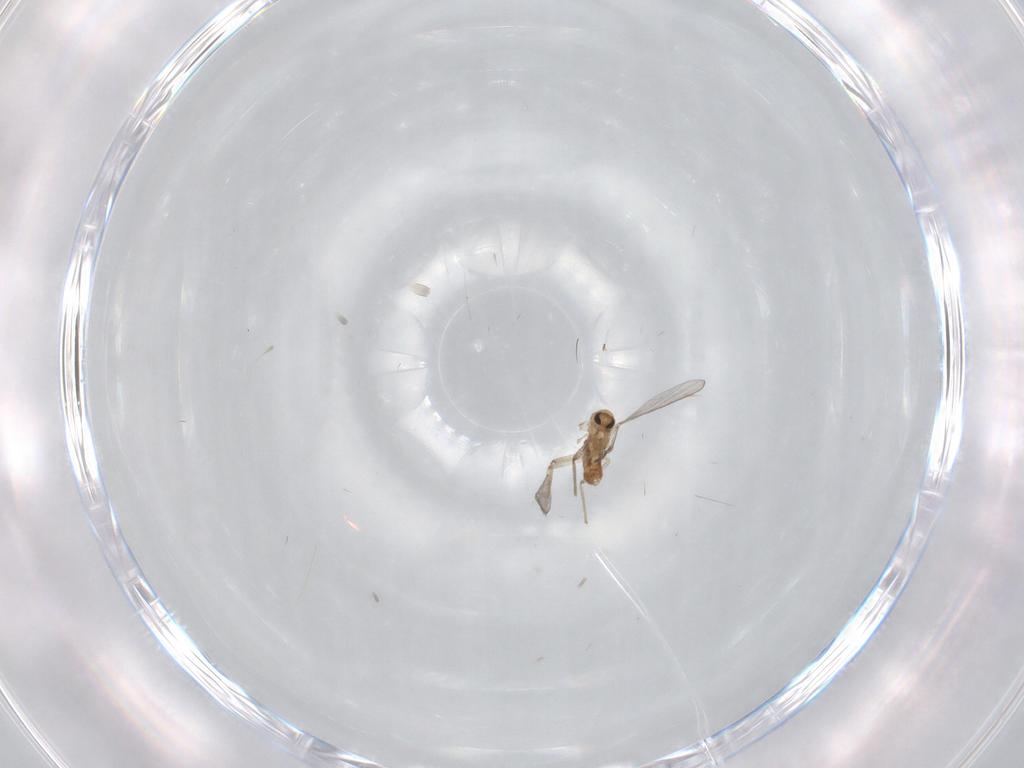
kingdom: Animalia
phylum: Arthropoda
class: Insecta
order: Diptera
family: Chironomidae
